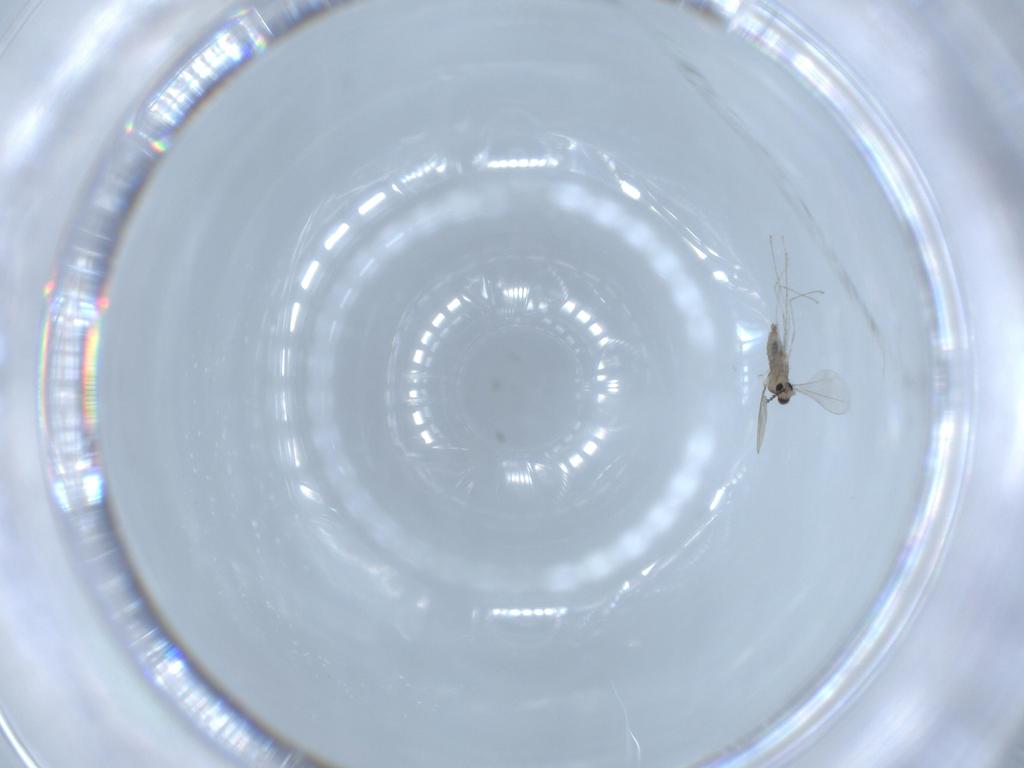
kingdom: Animalia
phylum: Arthropoda
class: Insecta
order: Diptera
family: Cecidomyiidae
